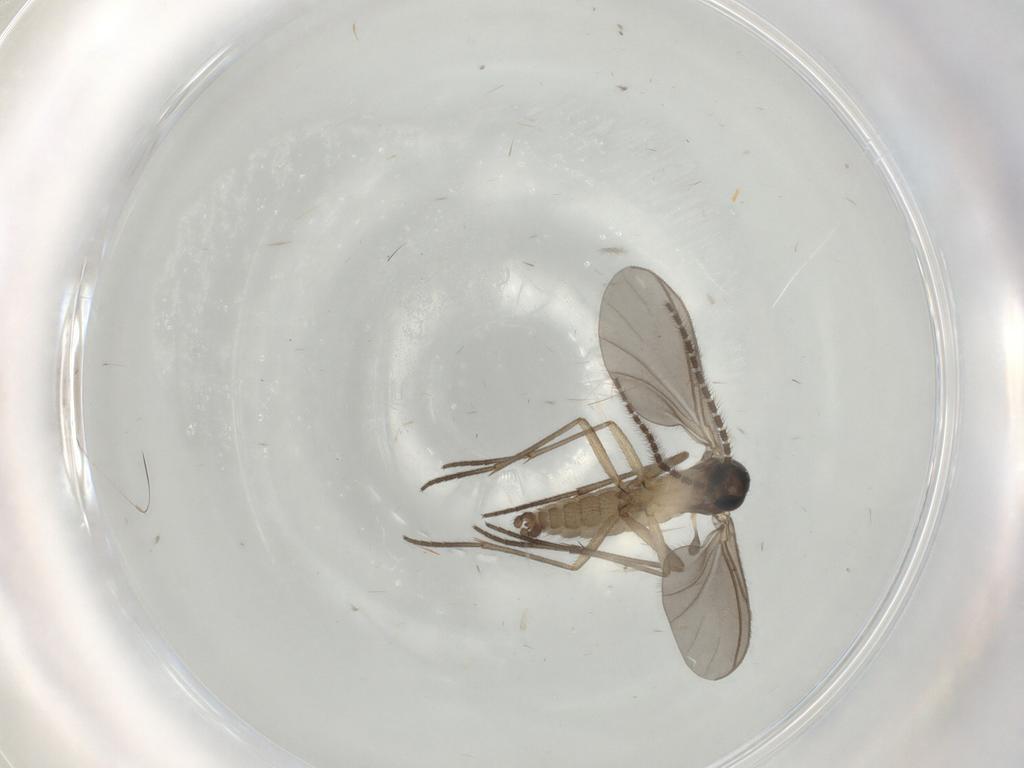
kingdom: Animalia
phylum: Arthropoda
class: Insecta
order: Diptera
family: Sciaridae
